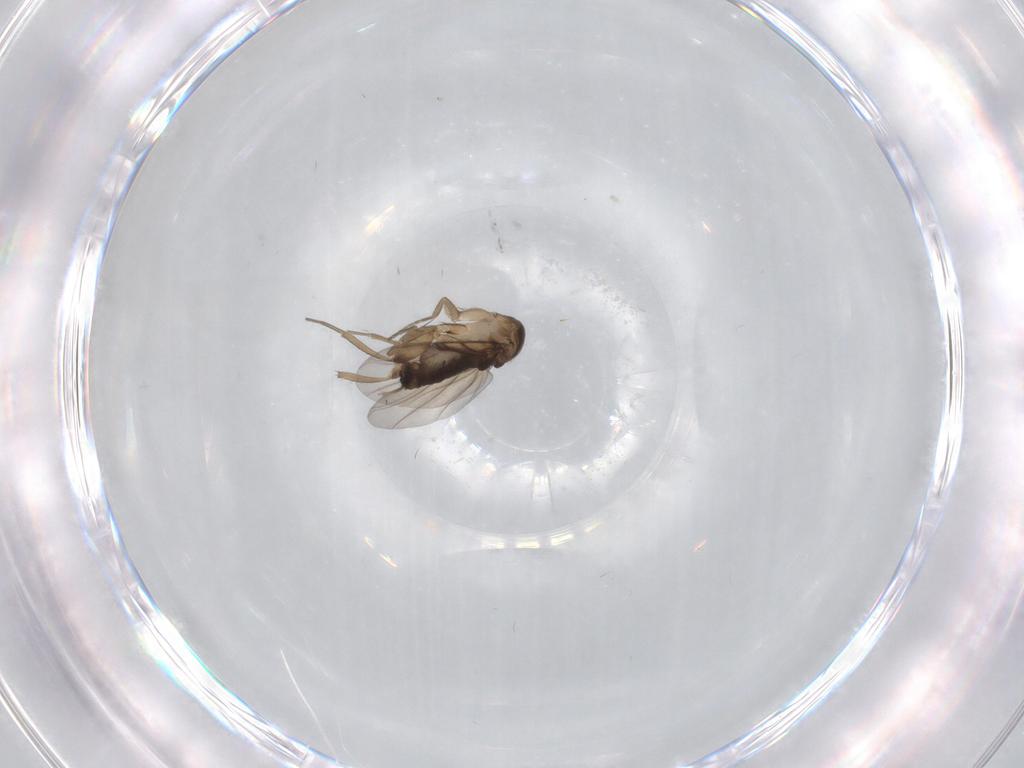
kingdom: Animalia
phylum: Arthropoda
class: Insecta
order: Diptera
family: Phoridae
